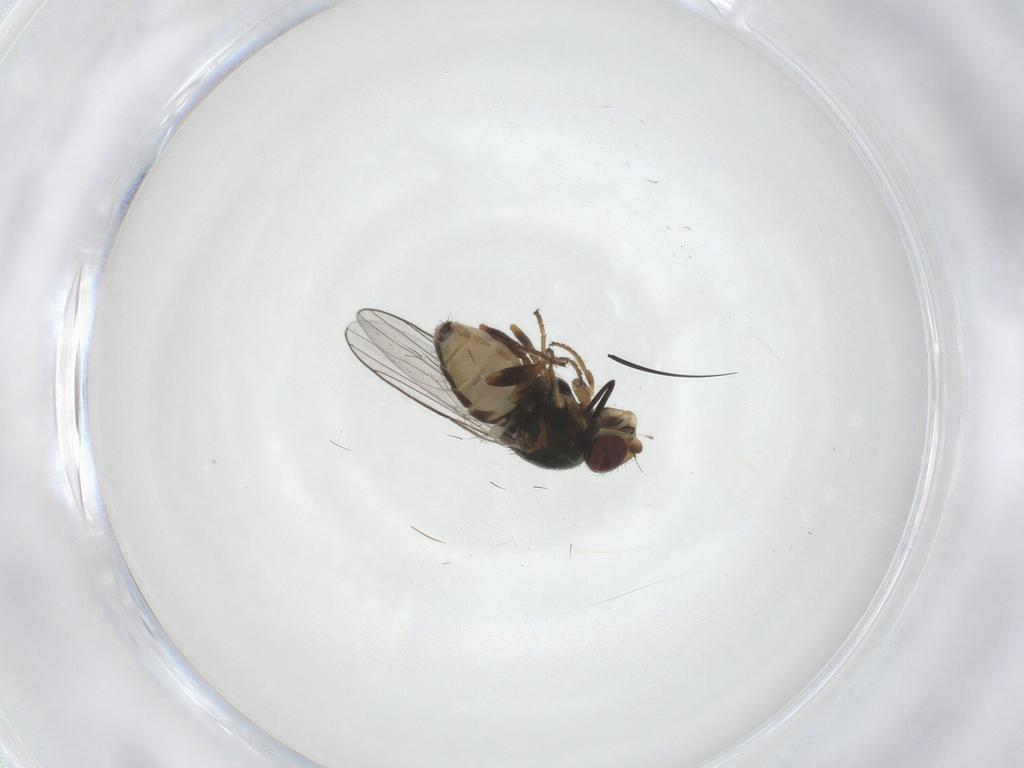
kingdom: Animalia
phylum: Arthropoda
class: Insecta
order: Diptera
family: Chloropidae
